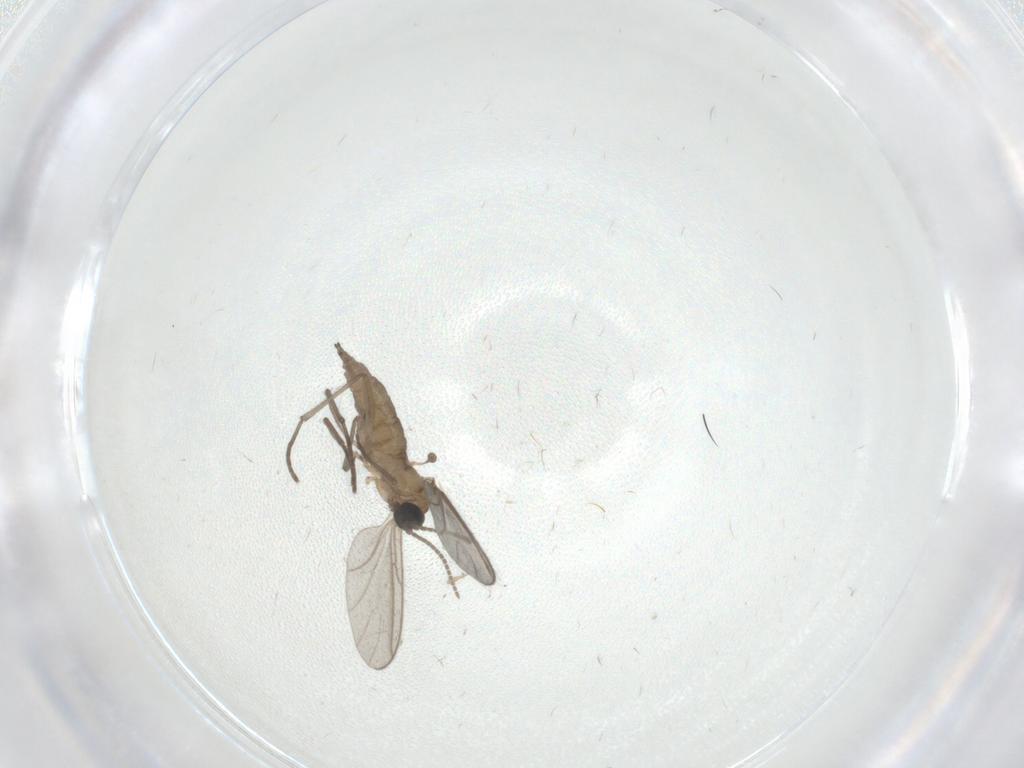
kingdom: Animalia
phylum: Arthropoda
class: Insecta
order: Diptera
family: Sciaridae
